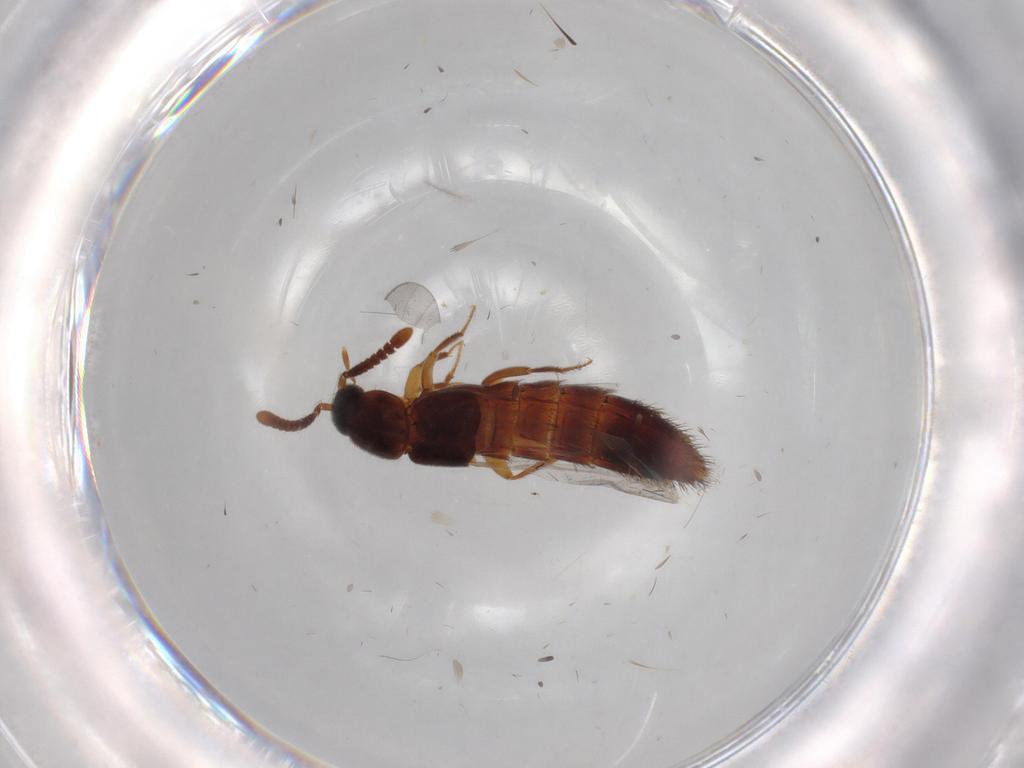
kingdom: Animalia
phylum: Arthropoda
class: Insecta
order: Coleoptera
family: Staphylinidae
